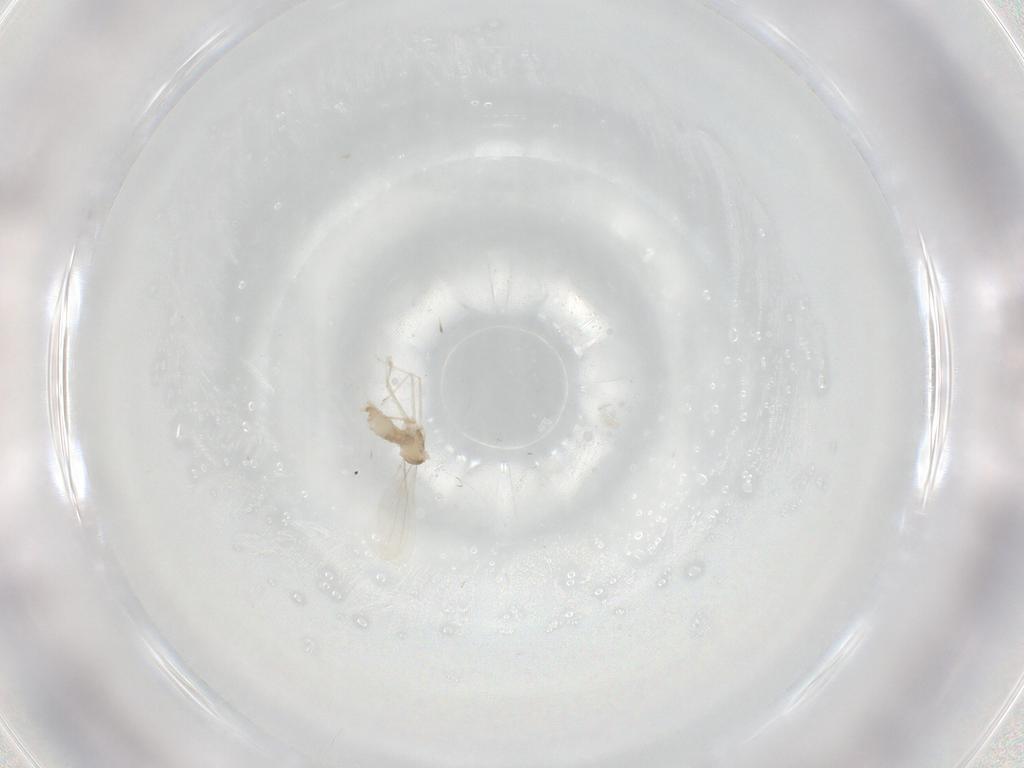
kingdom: Animalia
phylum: Arthropoda
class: Insecta
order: Diptera
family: Cecidomyiidae
